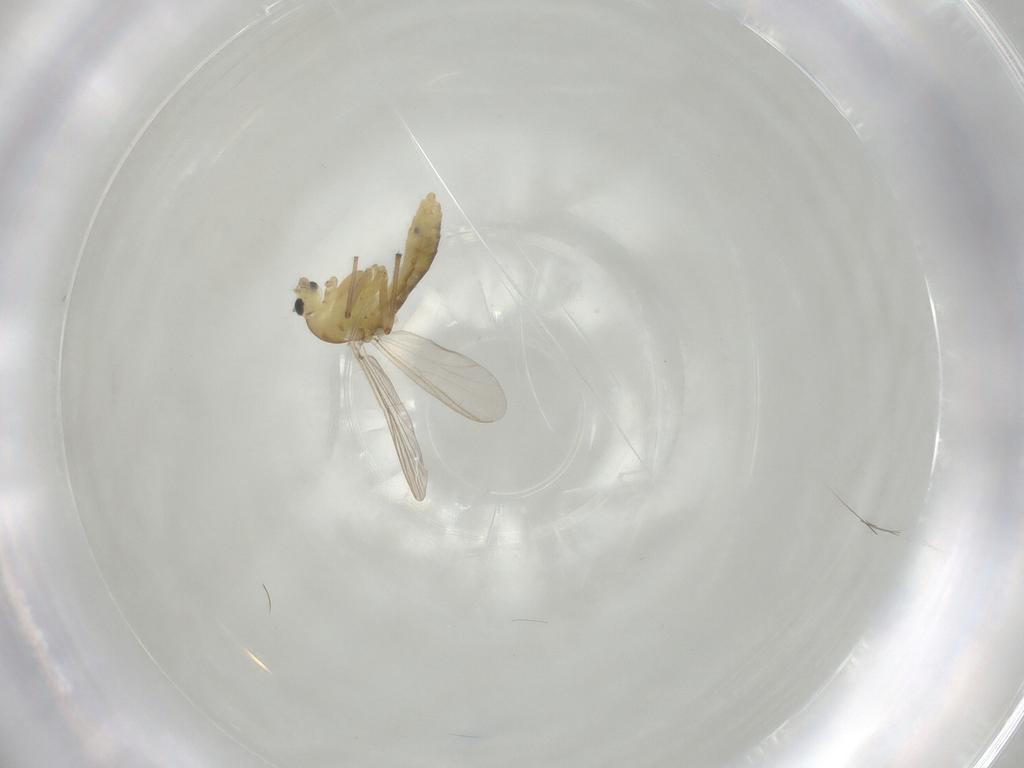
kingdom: Animalia
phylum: Arthropoda
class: Insecta
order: Diptera
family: Chironomidae
